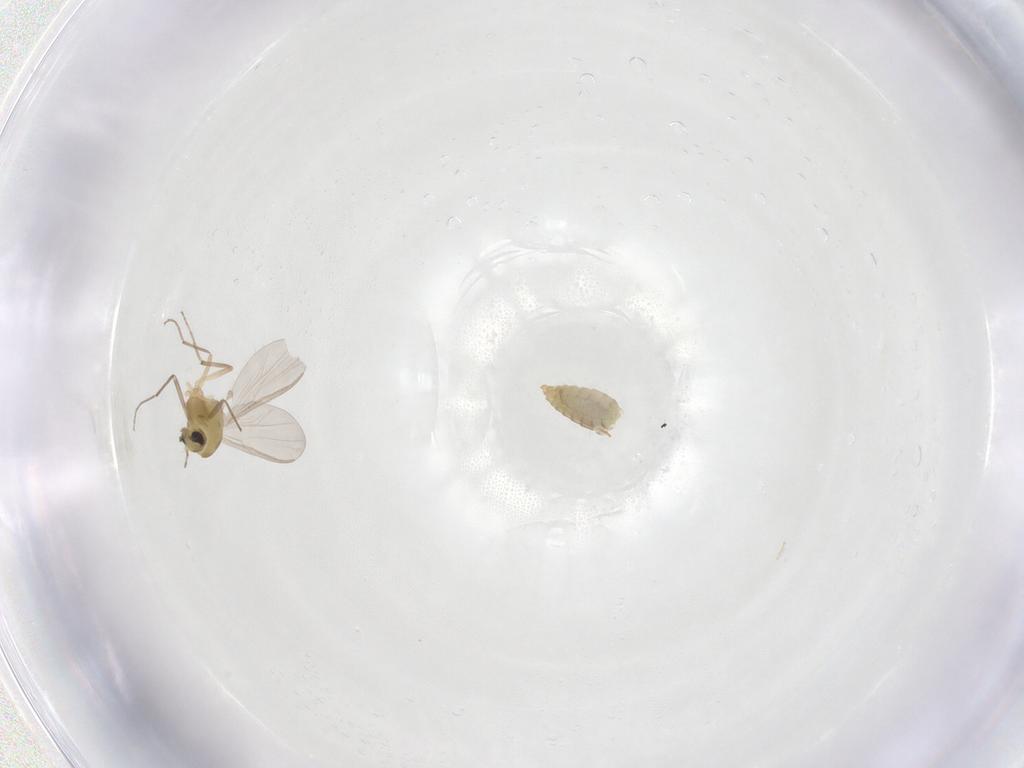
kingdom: Animalia
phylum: Arthropoda
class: Insecta
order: Diptera
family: Chironomidae
